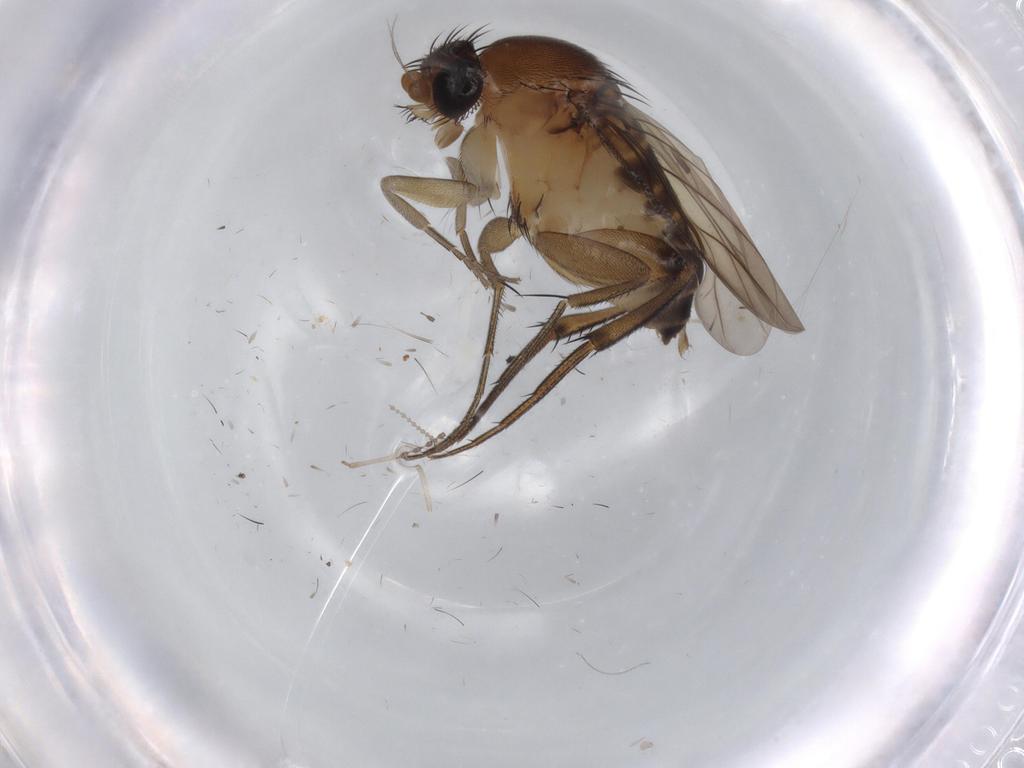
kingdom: Animalia
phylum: Arthropoda
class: Insecta
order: Diptera
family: Sciaridae
